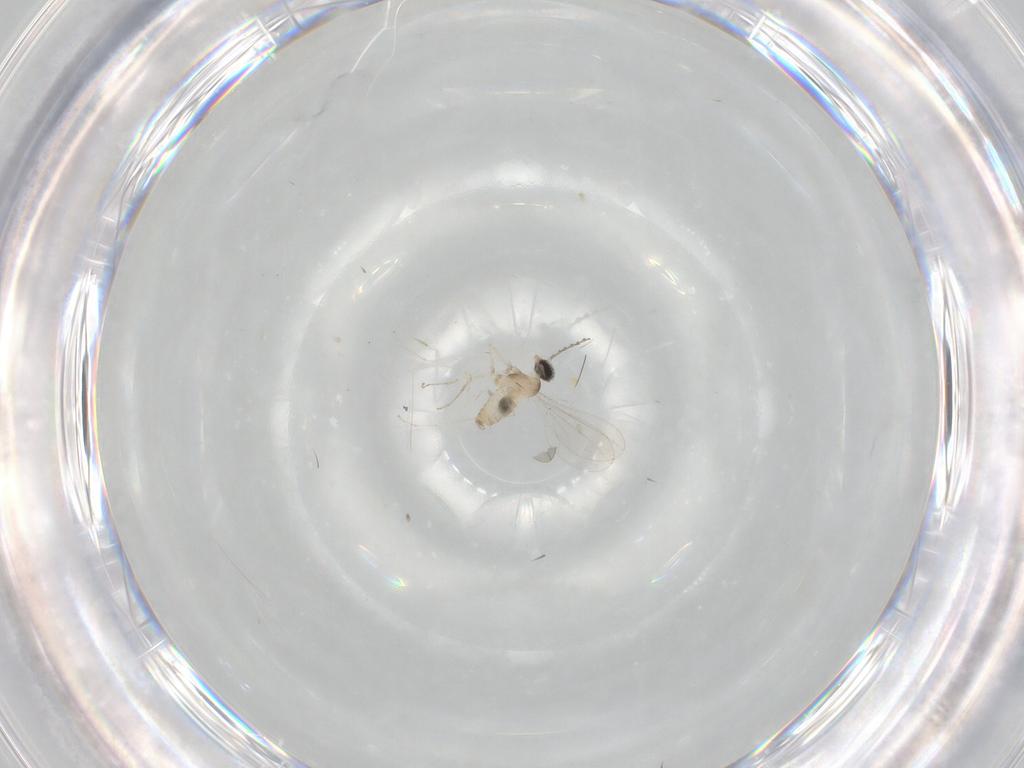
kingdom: Animalia
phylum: Arthropoda
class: Insecta
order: Diptera
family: Cecidomyiidae
